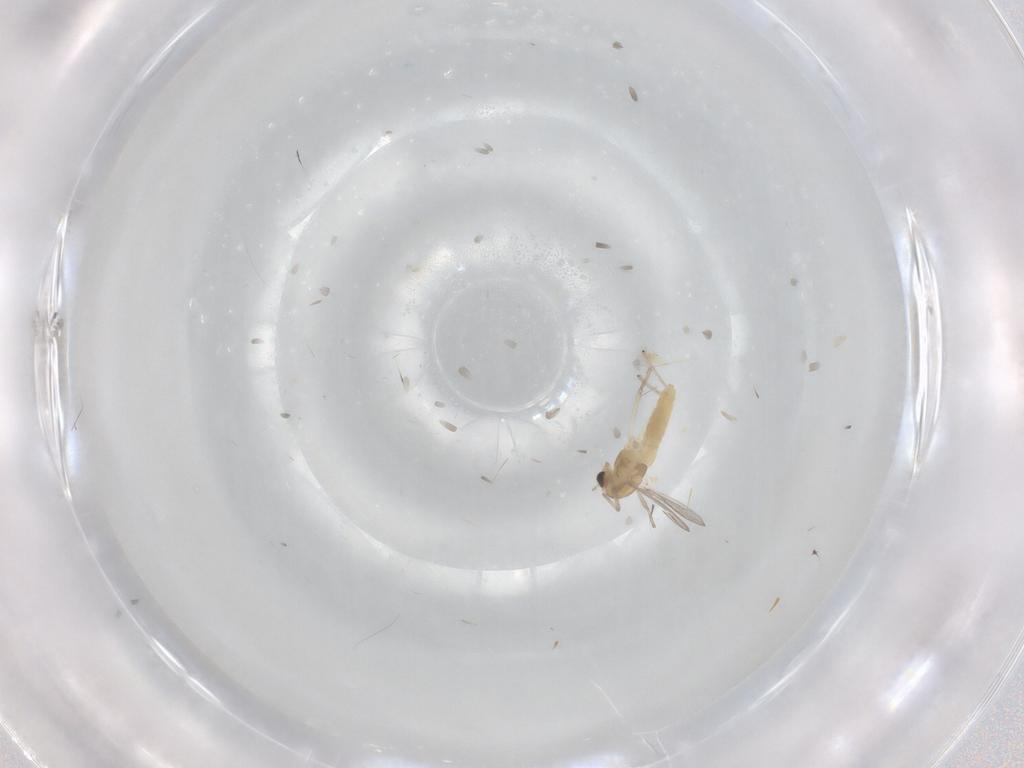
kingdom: Animalia
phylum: Arthropoda
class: Insecta
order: Diptera
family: Chironomidae
